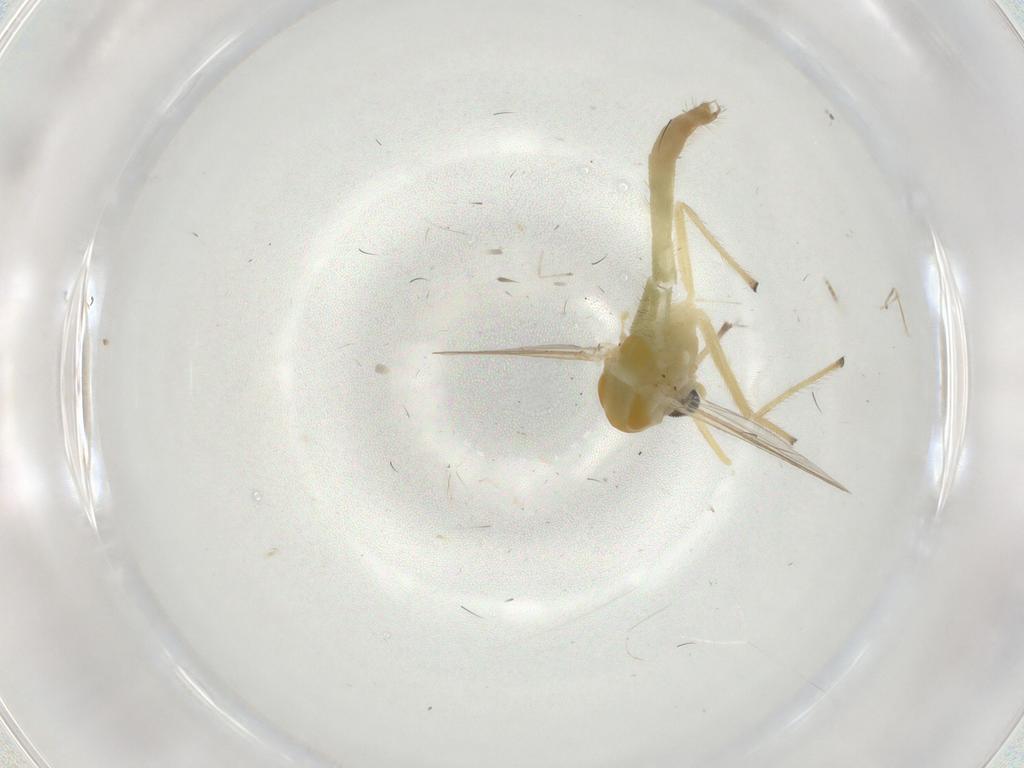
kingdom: Animalia
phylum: Arthropoda
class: Insecta
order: Diptera
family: Chironomidae
